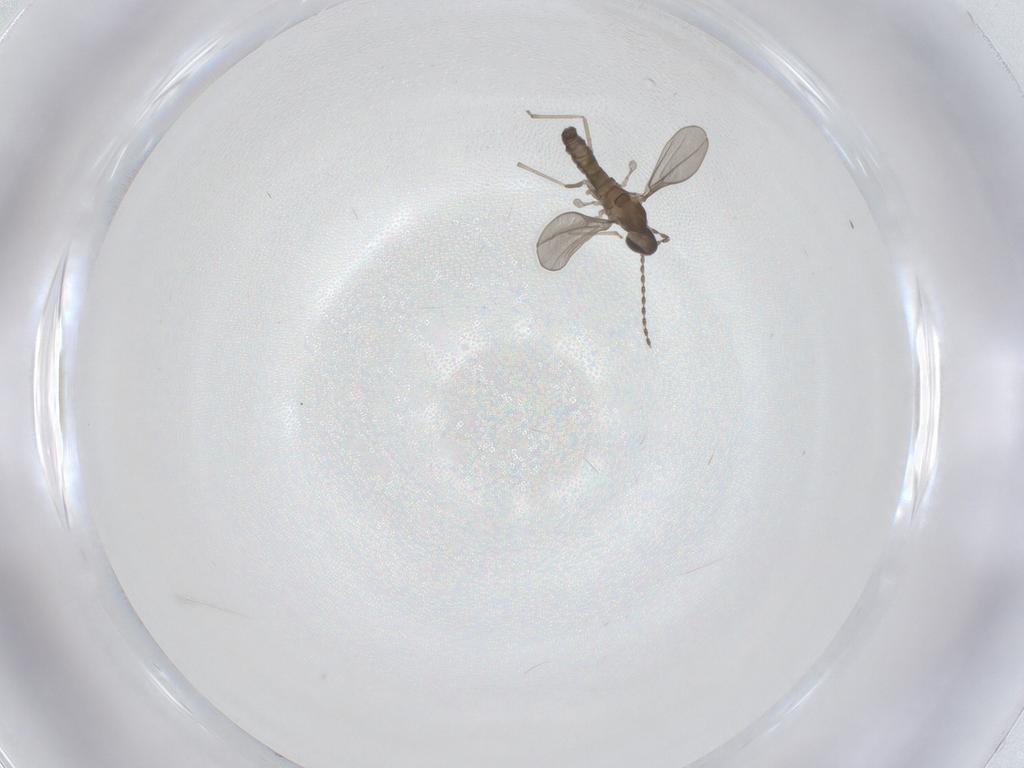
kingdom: Animalia
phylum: Arthropoda
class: Insecta
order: Diptera
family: Cecidomyiidae
